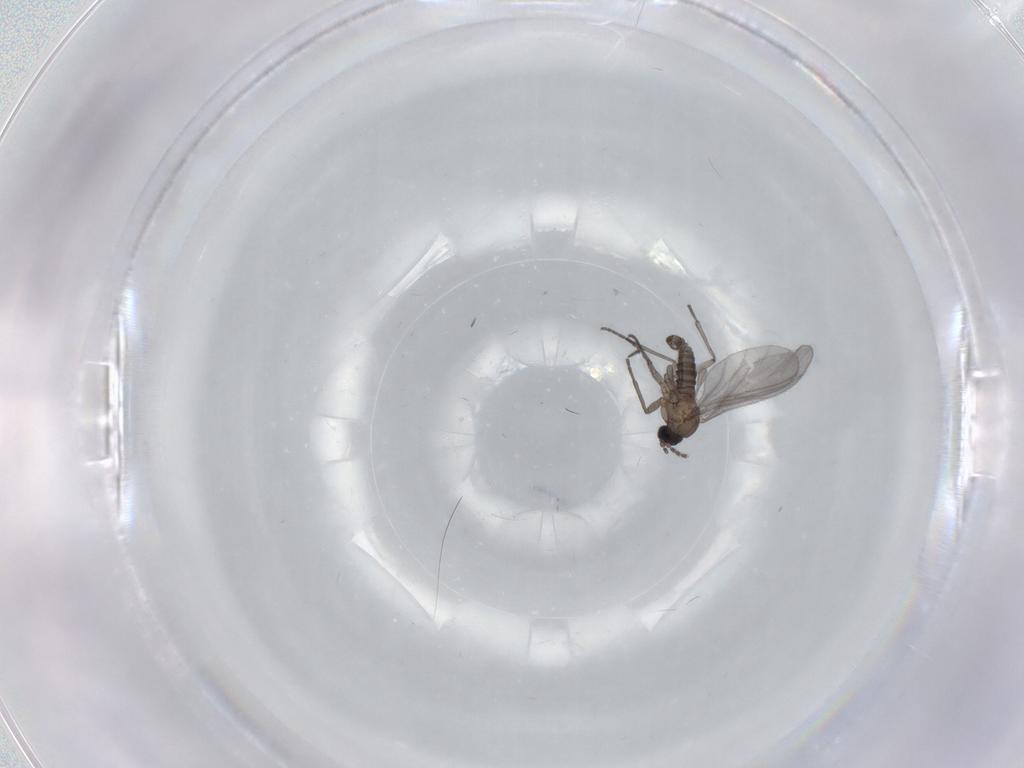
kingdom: Animalia
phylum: Arthropoda
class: Insecta
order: Diptera
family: Sciaridae
